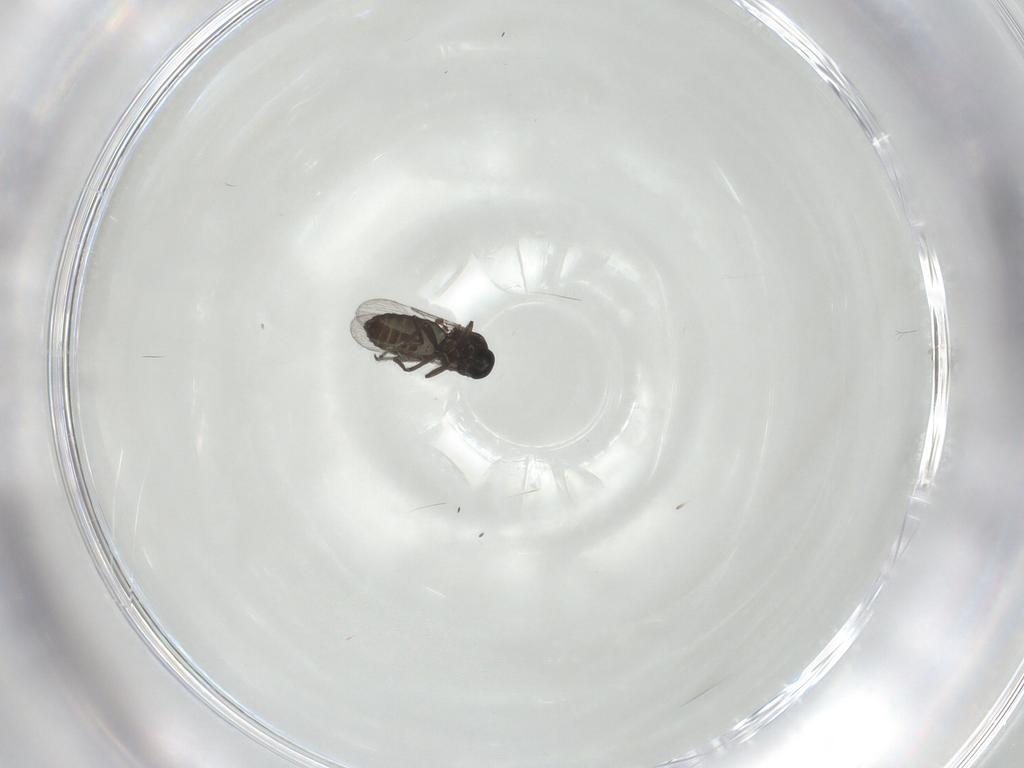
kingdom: Animalia
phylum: Arthropoda
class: Insecta
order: Diptera
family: Ceratopogonidae
